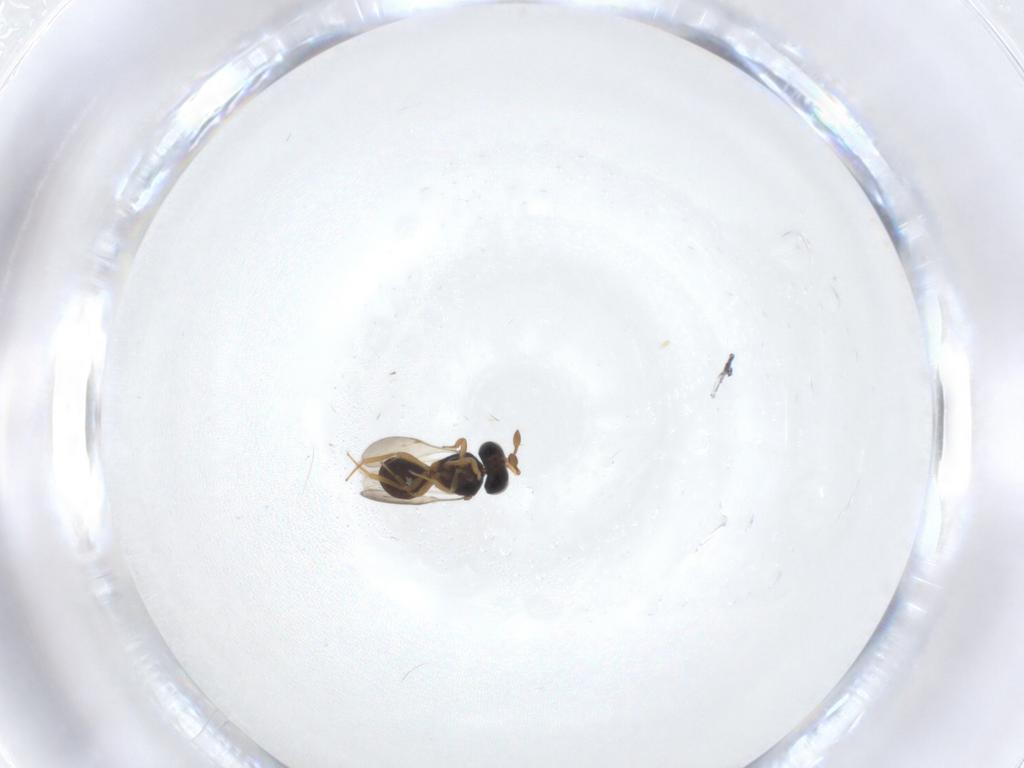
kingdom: Animalia
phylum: Arthropoda
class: Insecta
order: Hymenoptera
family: Scelionidae
